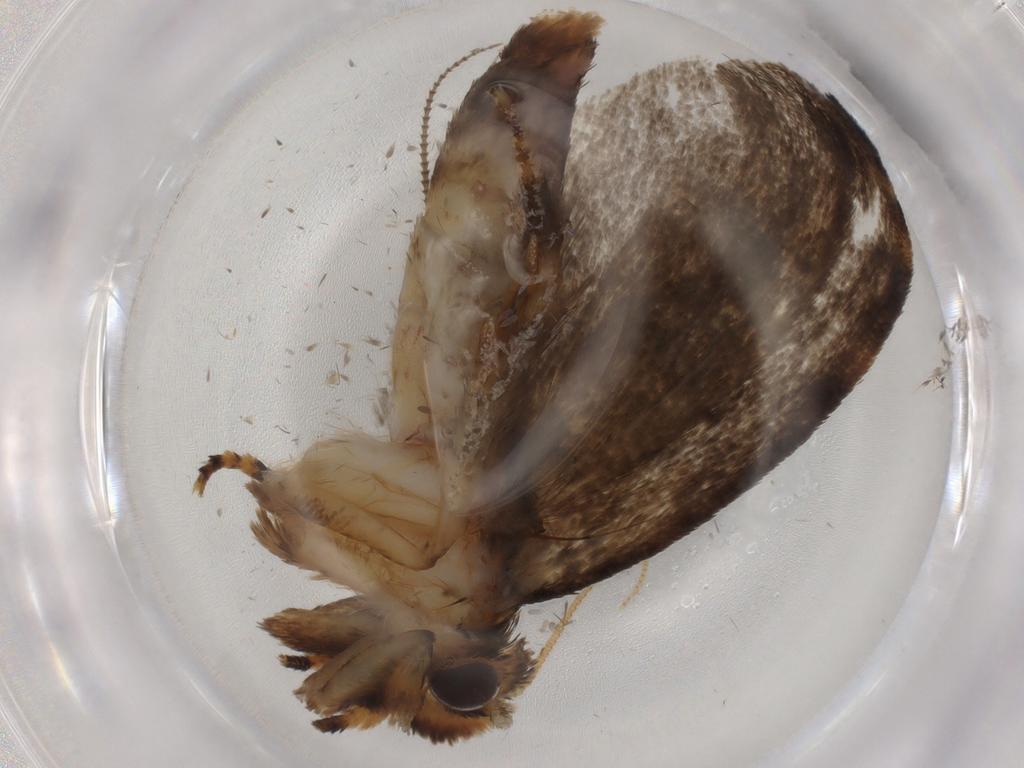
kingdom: Animalia
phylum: Arthropoda
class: Insecta
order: Lepidoptera
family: Tineidae
